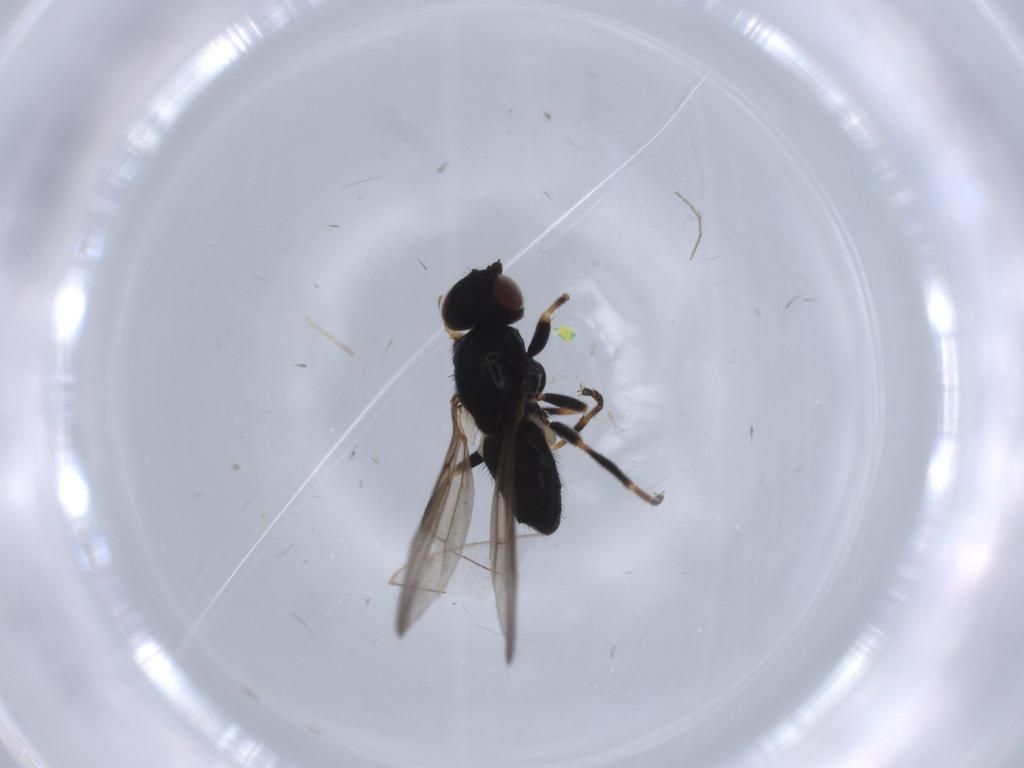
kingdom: Animalia
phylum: Arthropoda
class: Insecta
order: Diptera
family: Chloropidae
